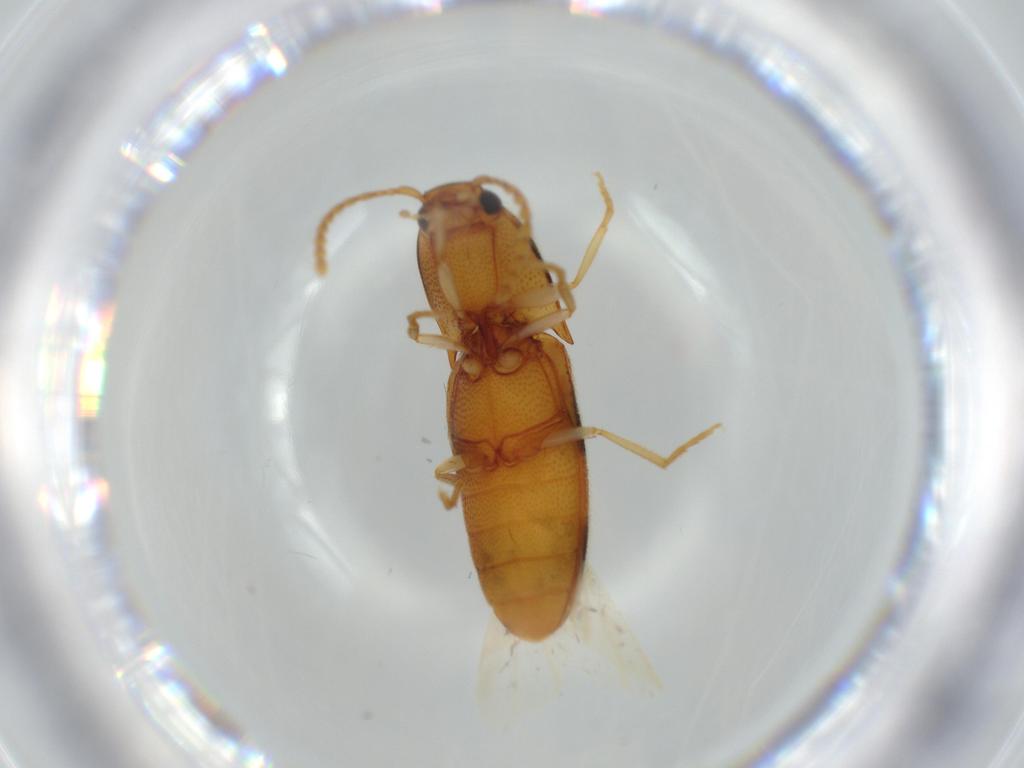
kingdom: Animalia
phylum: Arthropoda
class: Insecta
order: Coleoptera
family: Elateridae
